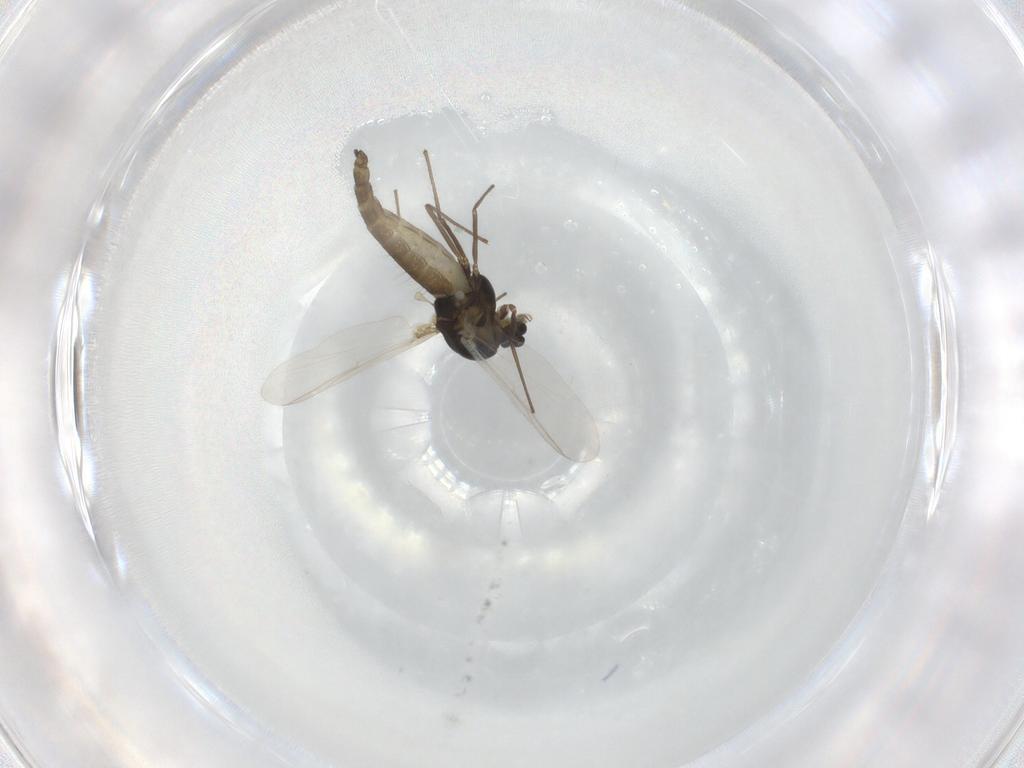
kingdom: Animalia
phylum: Arthropoda
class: Insecta
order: Diptera
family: Chironomidae
